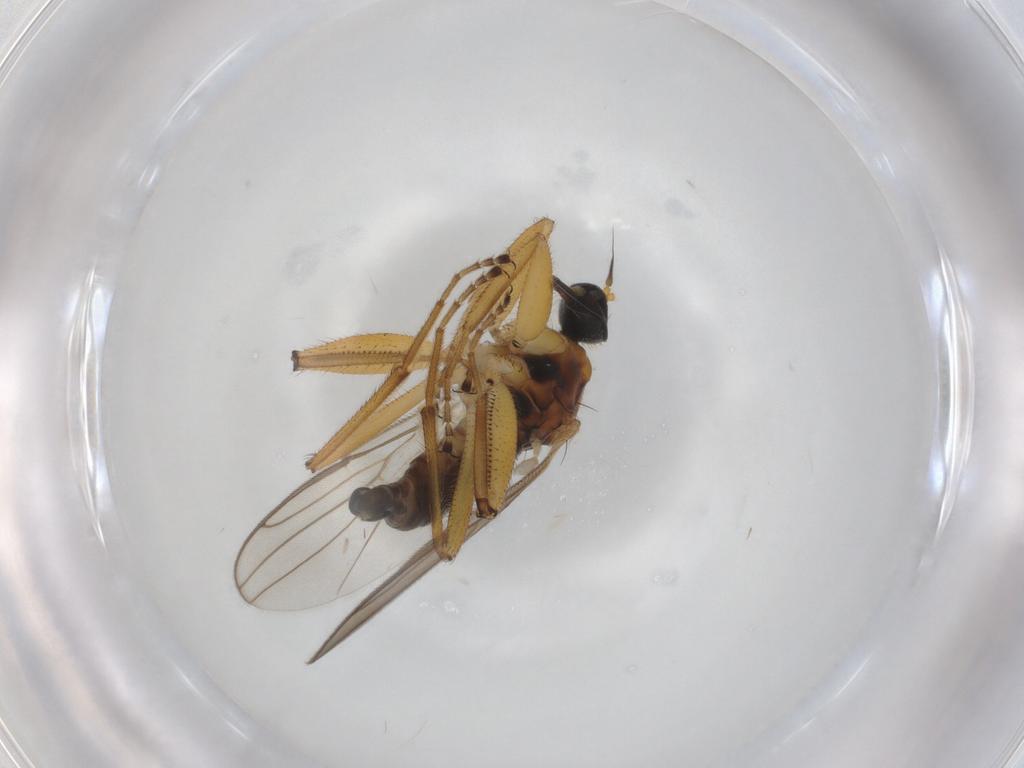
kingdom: Animalia
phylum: Arthropoda
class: Insecta
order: Diptera
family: Hybotidae
